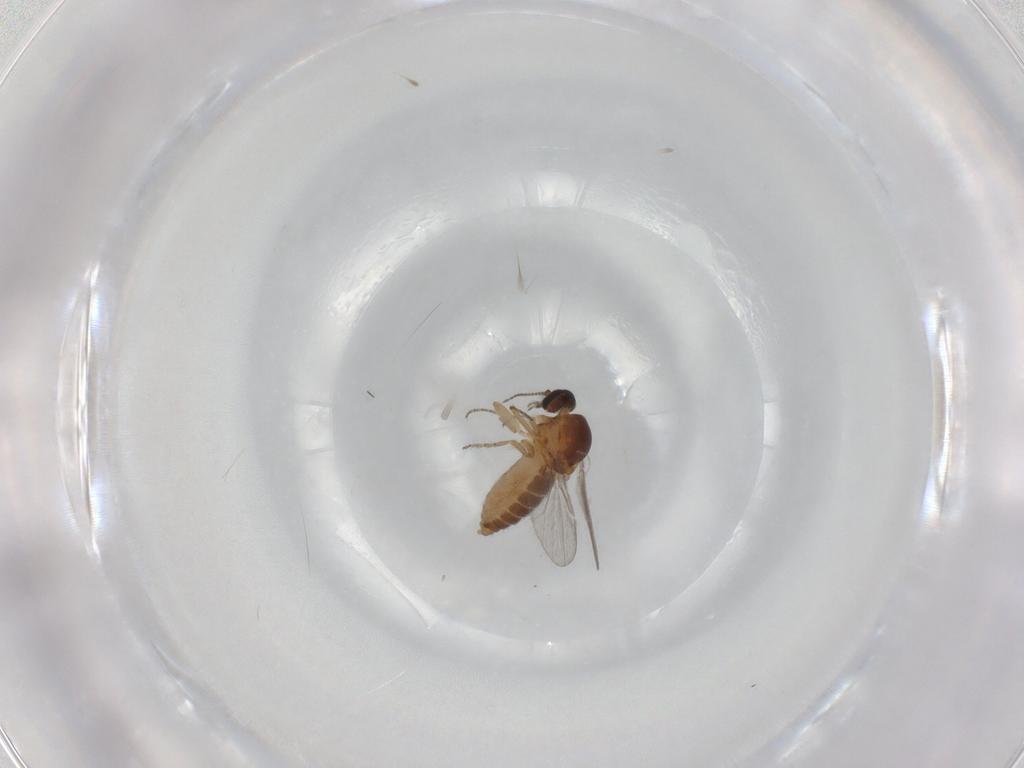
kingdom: Animalia
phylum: Arthropoda
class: Insecta
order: Diptera
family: Ceratopogonidae
